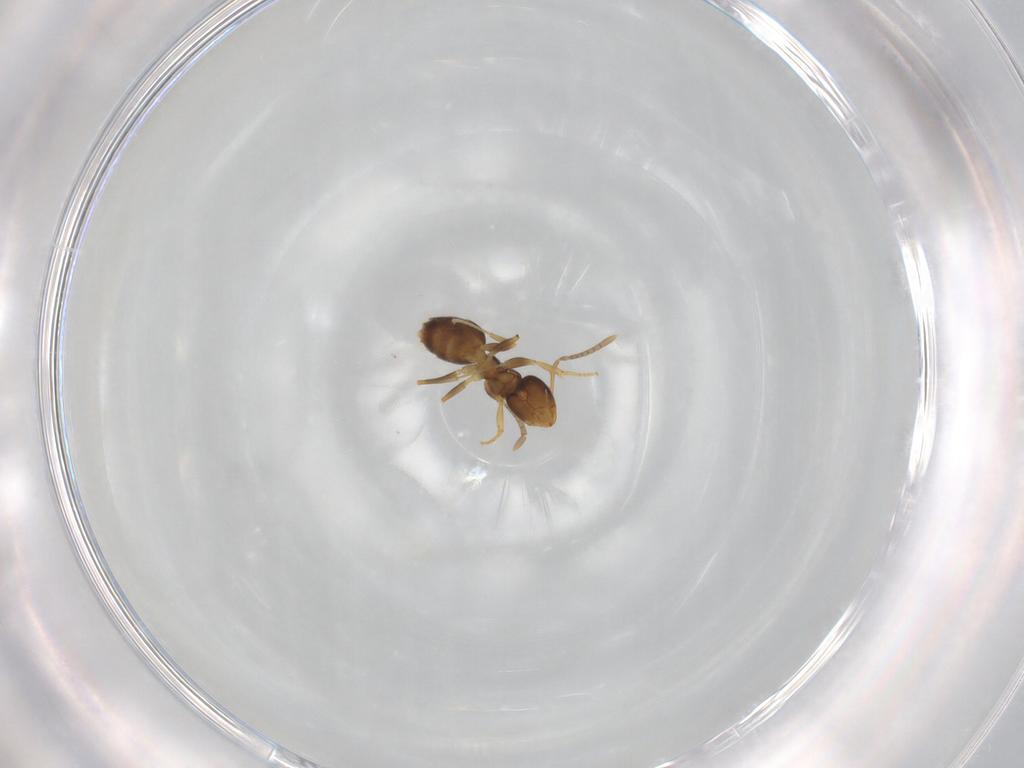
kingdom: Animalia
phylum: Arthropoda
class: Insecta
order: Hymenoptera
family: Formicidae
